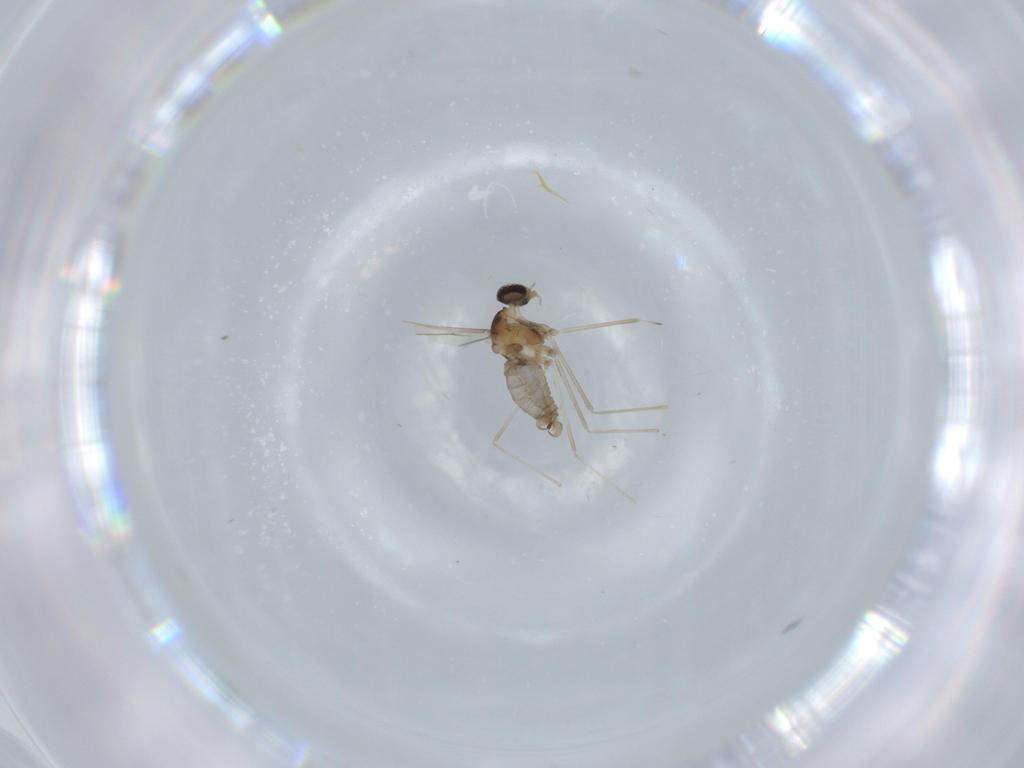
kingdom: Animalia
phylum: Arthropoda
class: Insecta
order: Diptera
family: Cecidomyiidae
